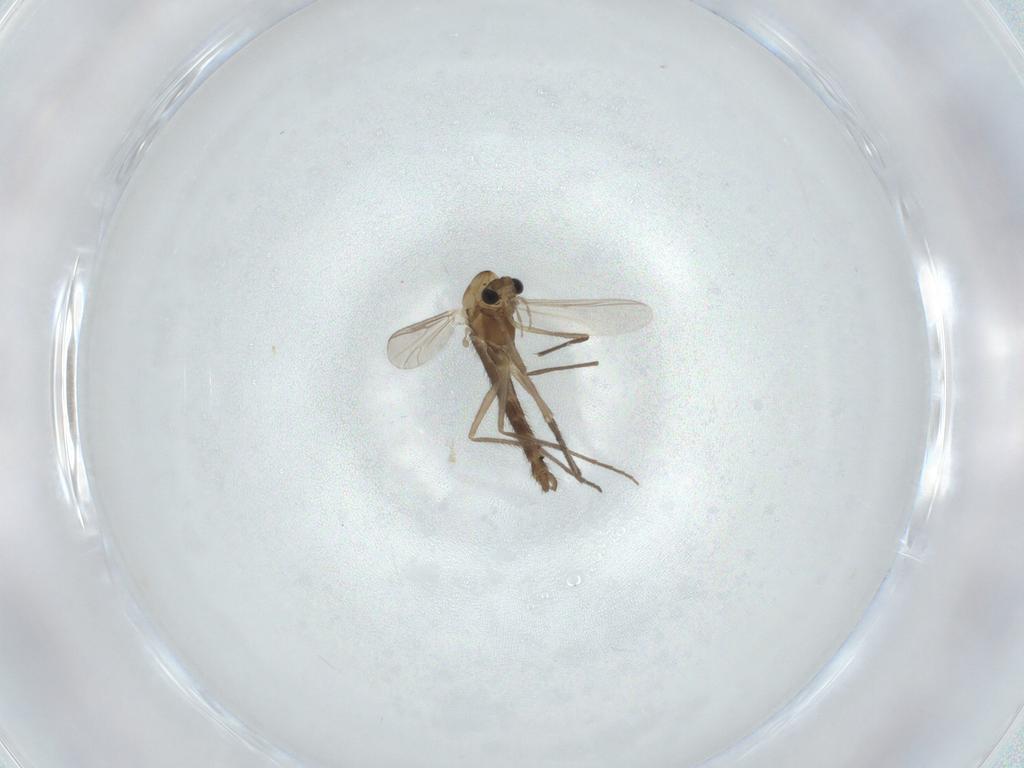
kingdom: Animalia
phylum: Arthropoda
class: Insecta
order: Diptera
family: Chironomidae
